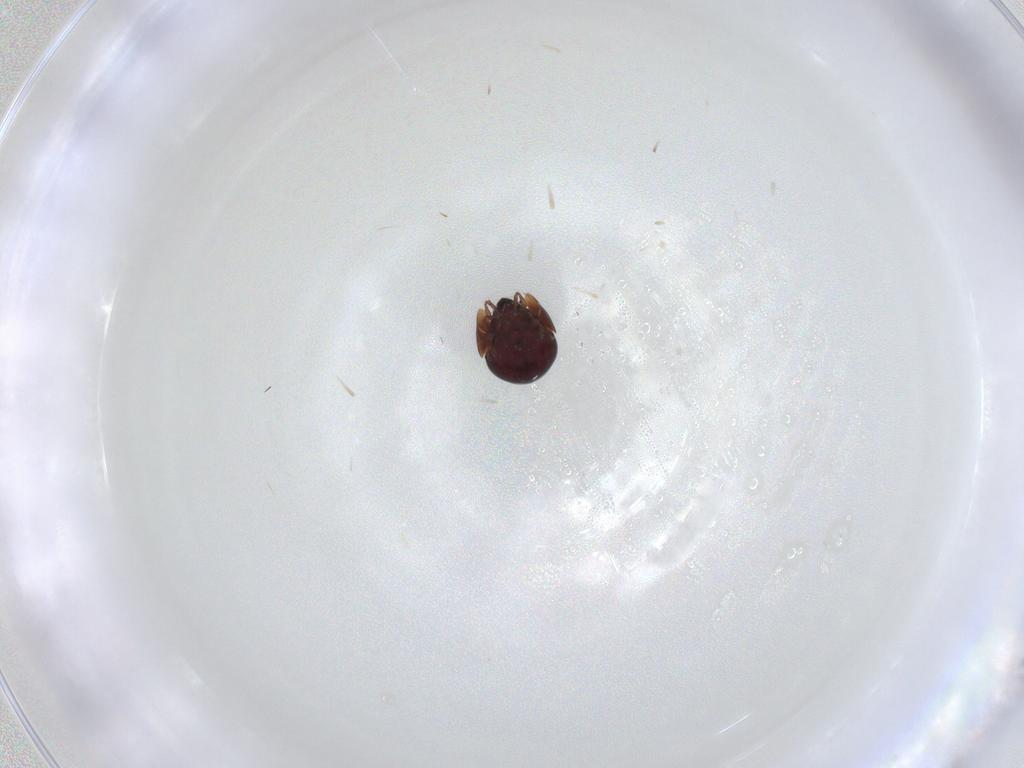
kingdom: Animalia
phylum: Arthropoda
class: Arachnida
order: Sarcoptiformes
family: Galumnidae
